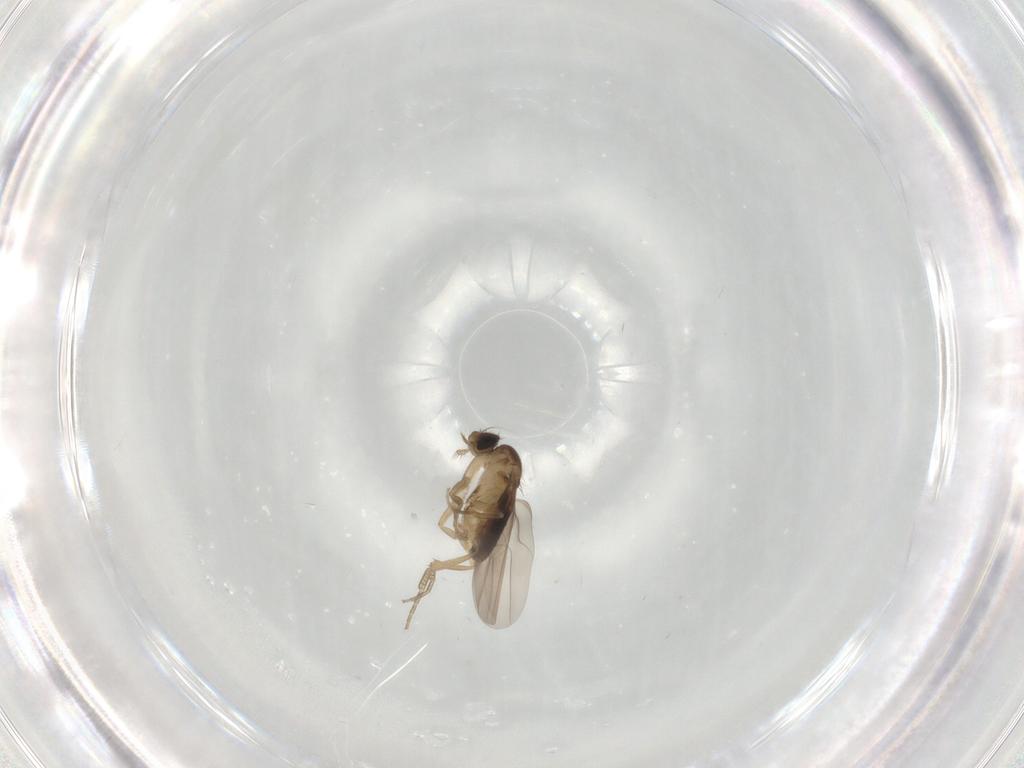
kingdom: Animalia
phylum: Arthropoda
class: Insecta
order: Diptera
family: Phoridae
